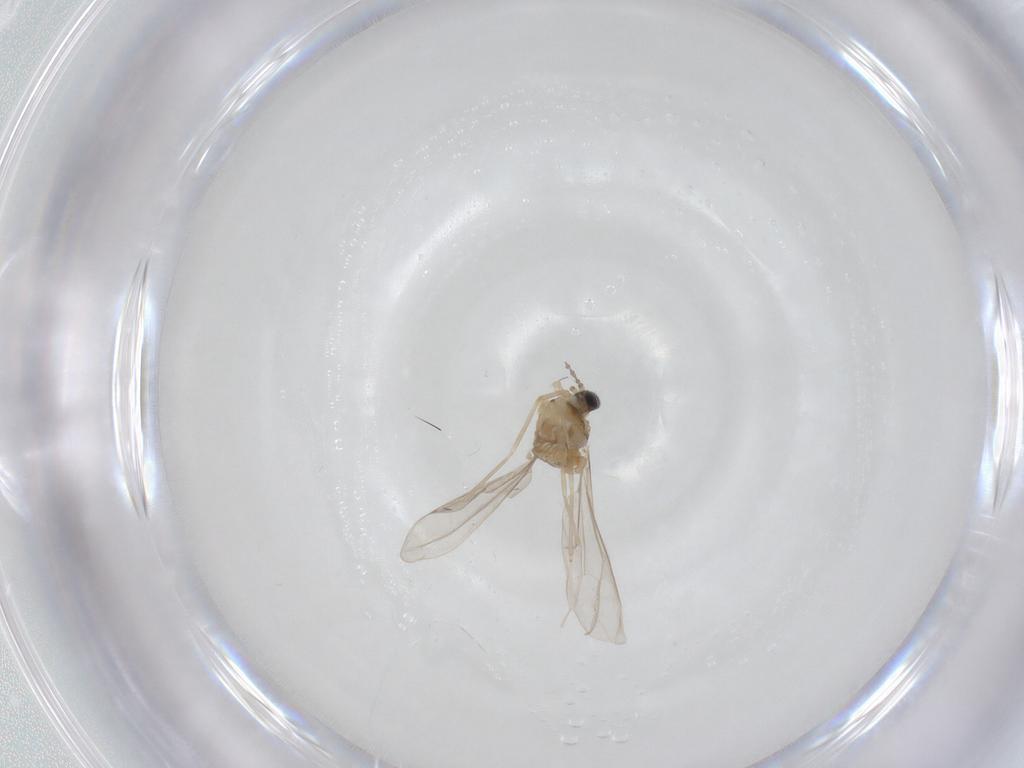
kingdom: Animalia
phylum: Arthropoda
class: Insecta
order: Diptera
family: Cecidomyiidae
